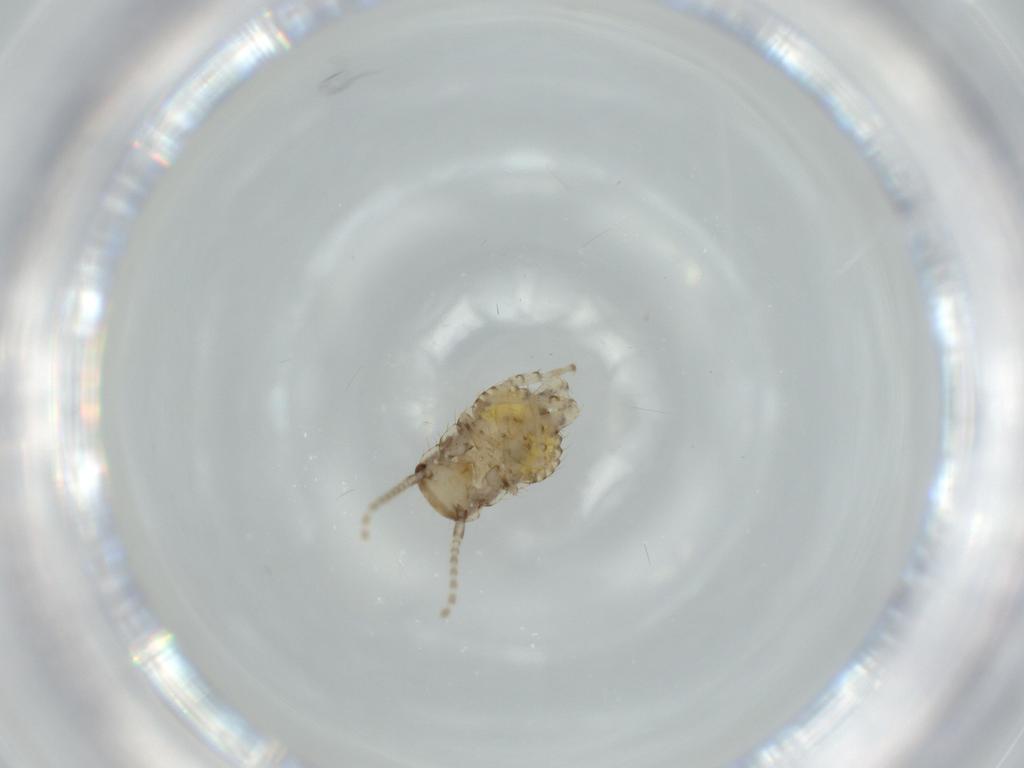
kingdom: Animalia
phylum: Arthropoda
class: Insecta
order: Blattodea
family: Ectobiidae
